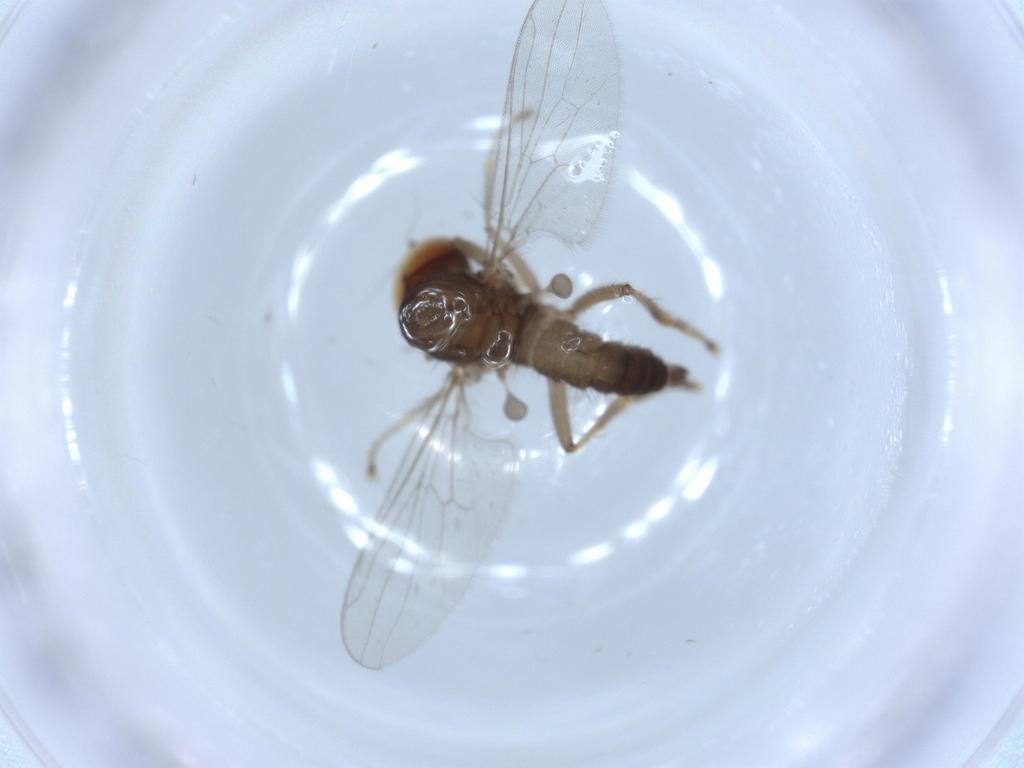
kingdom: Animalia
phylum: Arthropoda
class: Insecta
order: Diptera
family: Hybotidae
